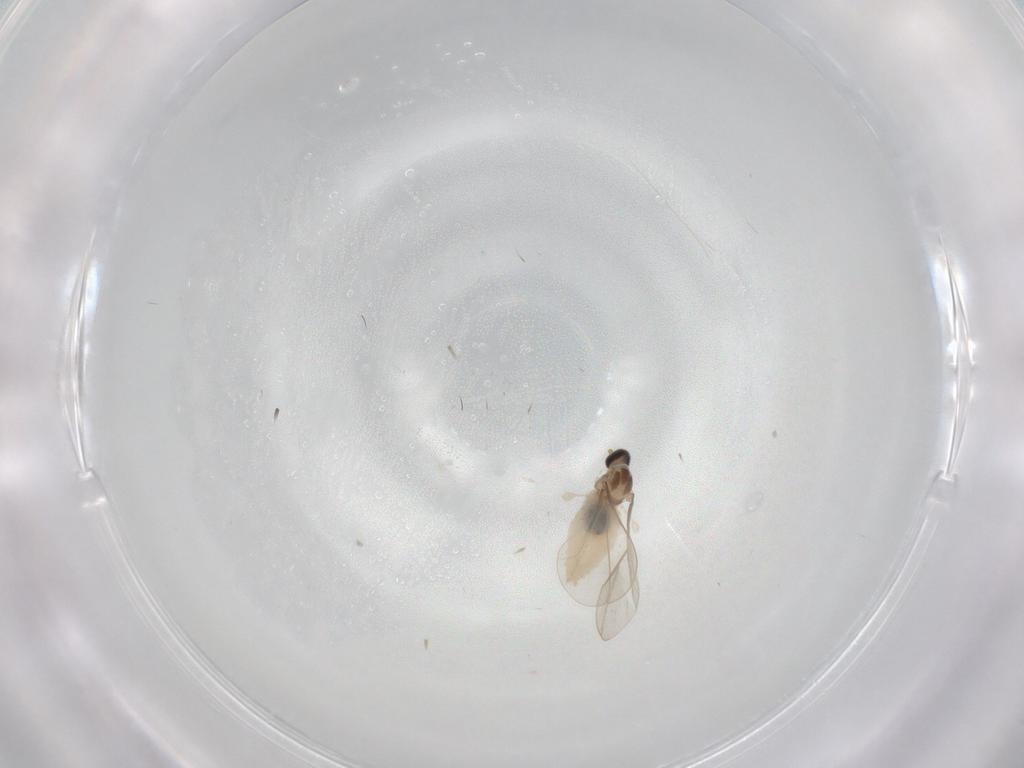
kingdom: Animalia
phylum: Arthropoda
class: Insecta
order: Diptera
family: Cecidomyiidae
